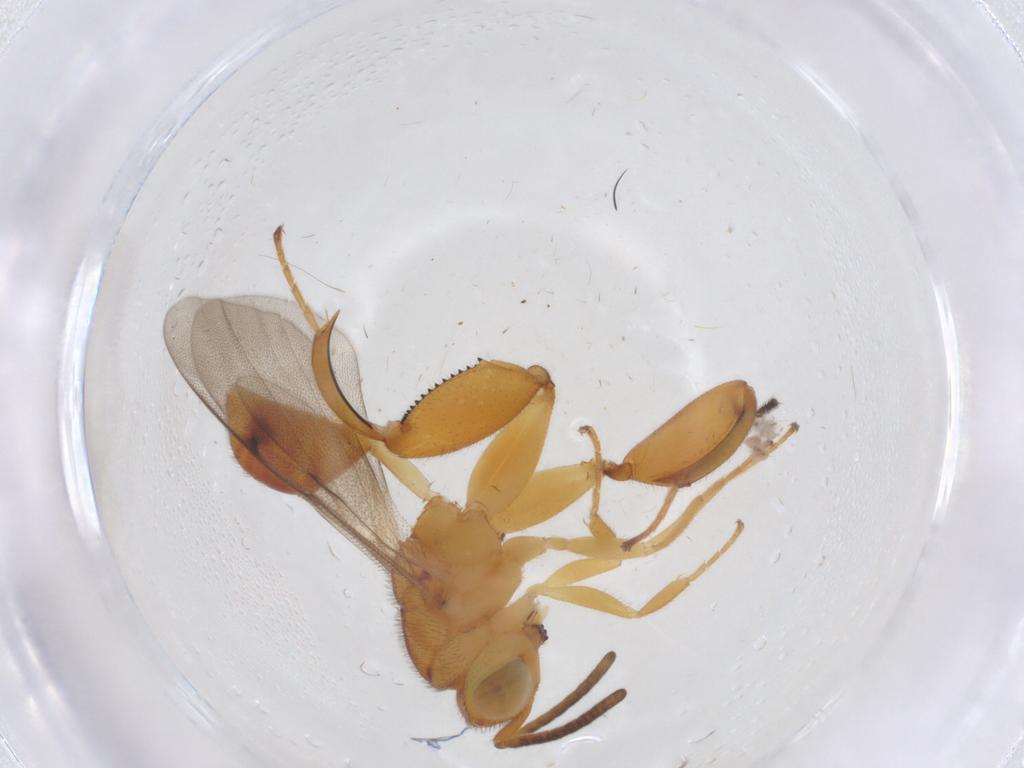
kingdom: Animalia
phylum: Arthropoda
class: Insecta
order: Hymenoptera
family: Chalcididae
